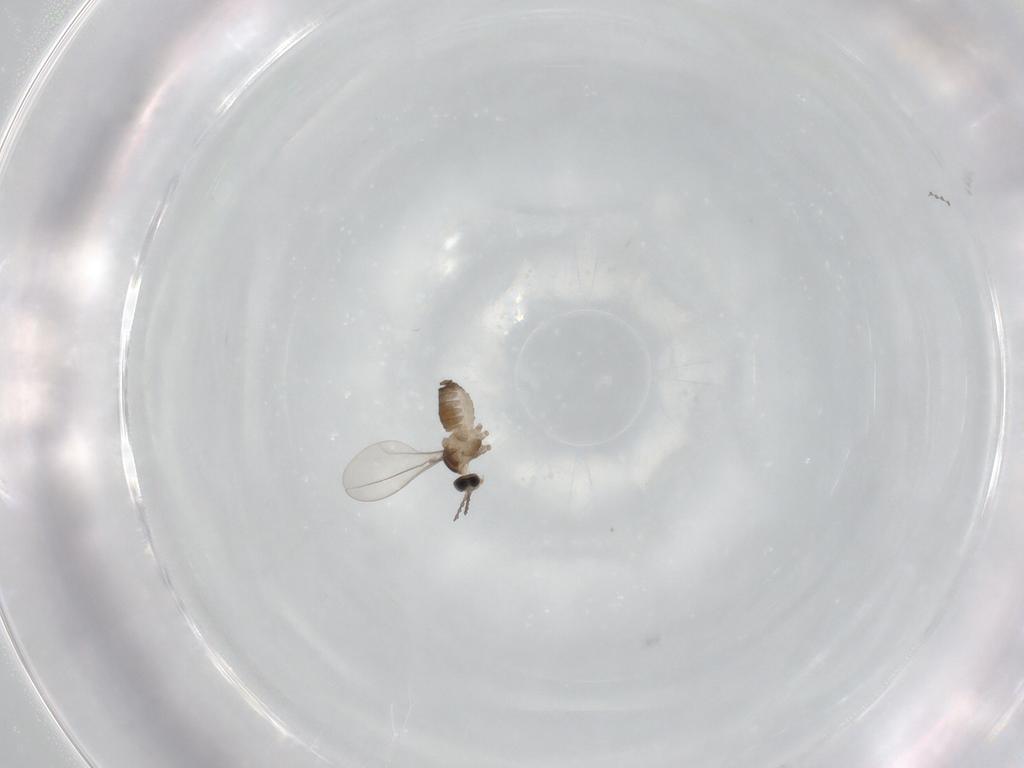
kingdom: Animalia
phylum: Arthropoda
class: Insecta
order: Diptera
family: Cecidomyiidae
